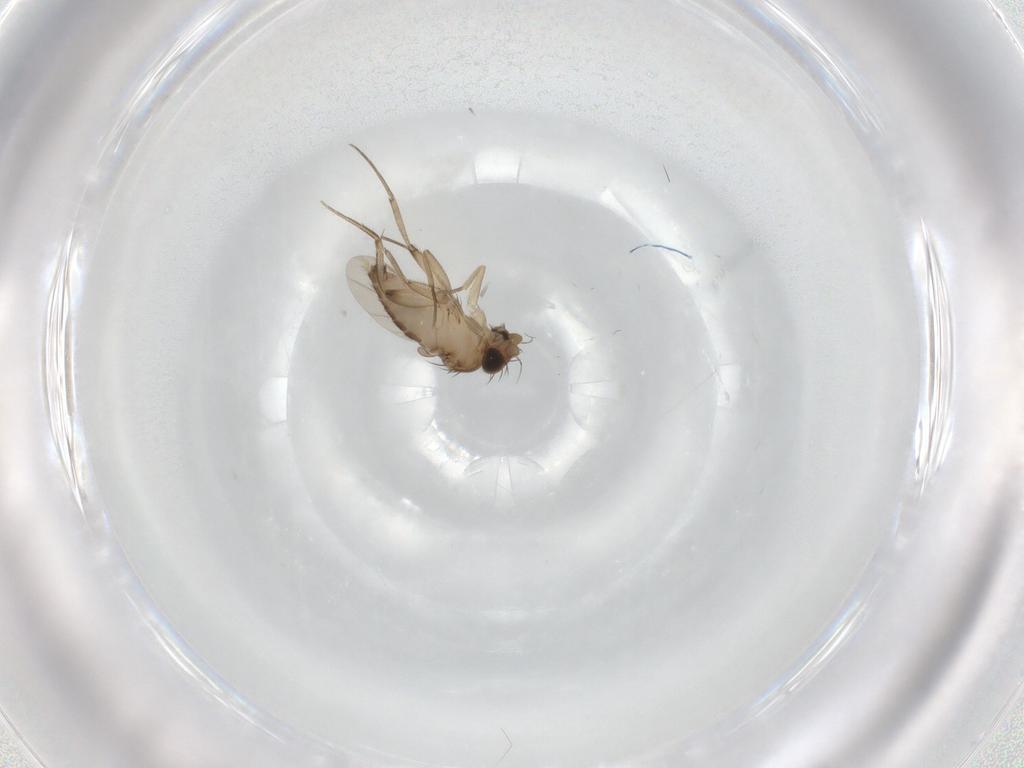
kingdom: Animalia
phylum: Arthropoda
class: Insecta
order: Diptera
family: Phoridae
